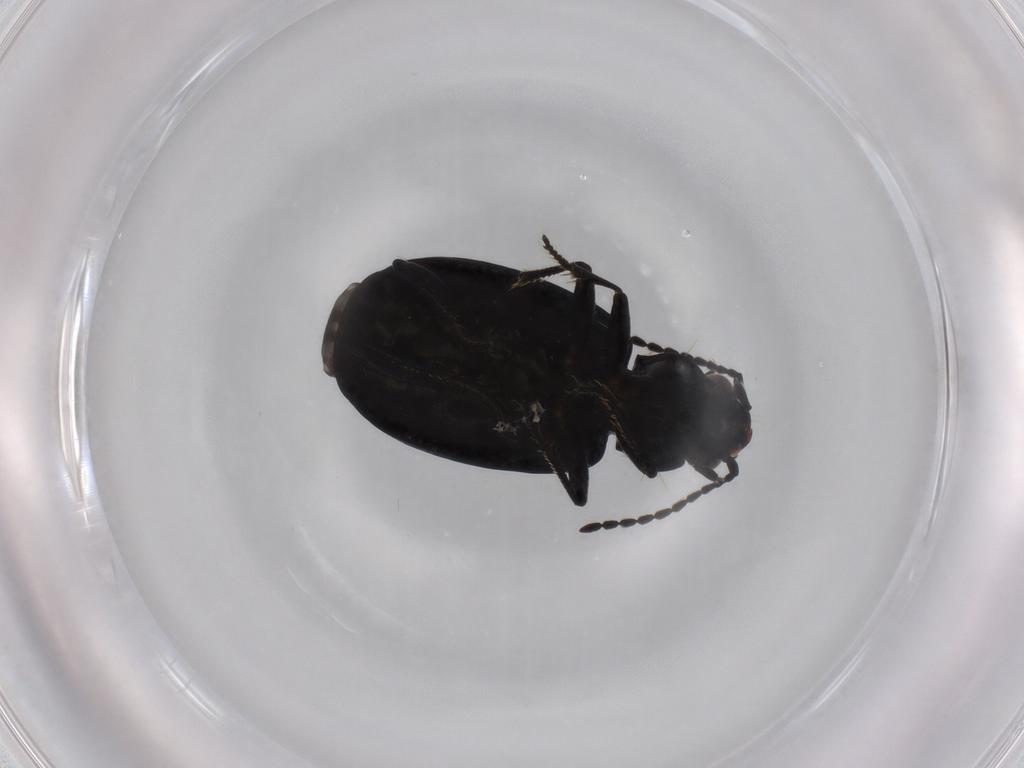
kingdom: Animalia
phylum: Arthropoda
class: Insecta
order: Coleoptera
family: Carabidae
